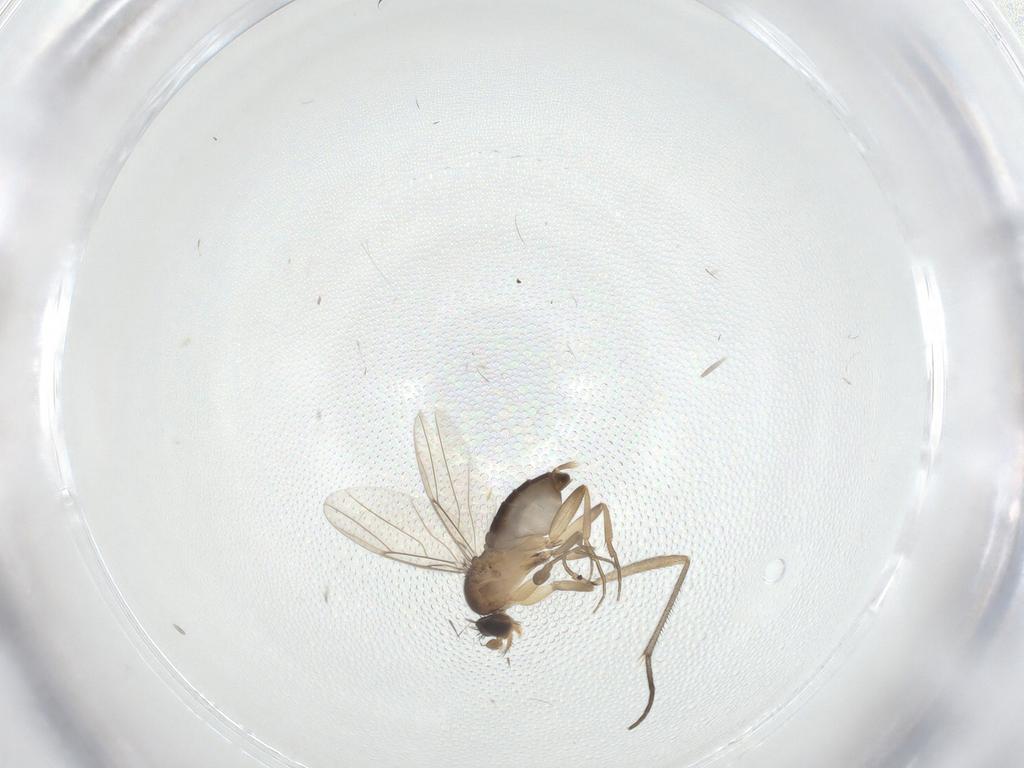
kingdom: Animalia
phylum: Arthropoda
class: Insecta
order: Diptera
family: Phoridae
